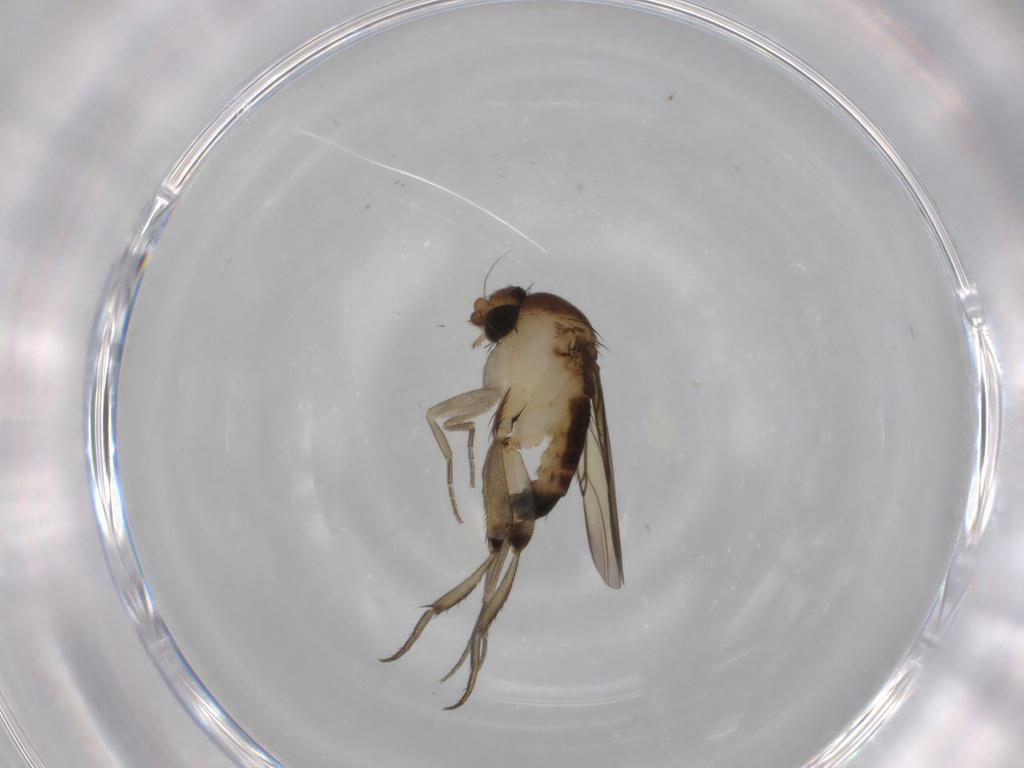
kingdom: Animalia
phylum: Arthropoda
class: Insecta
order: Diptera
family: Phoridae
